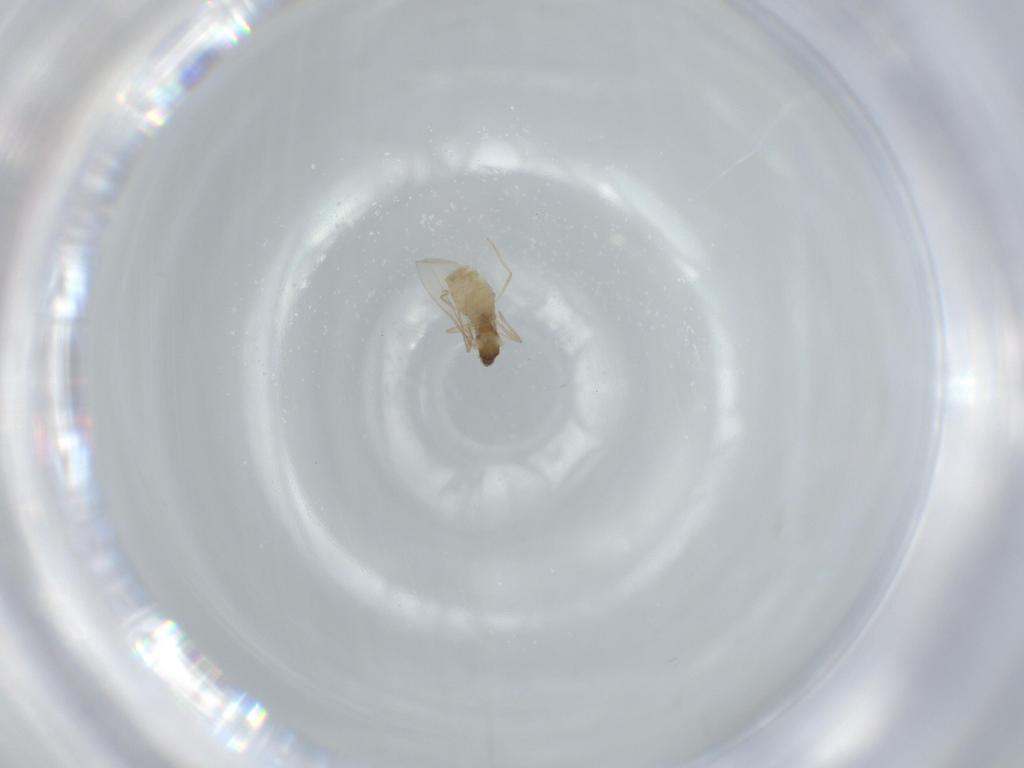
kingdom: Animalia
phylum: Arthropoda
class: Insecta
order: Diptera
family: Cecidomyiidae
